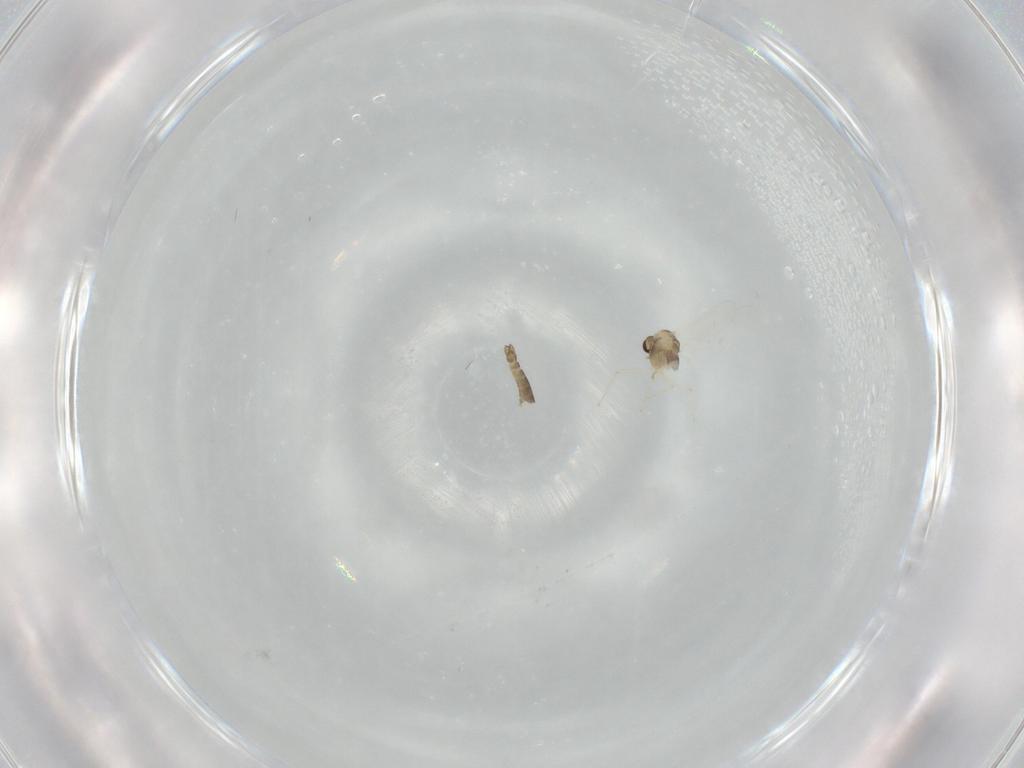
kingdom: Animalia
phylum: Arthropoda
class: Insecta
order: Diptera
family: Chironomidae
